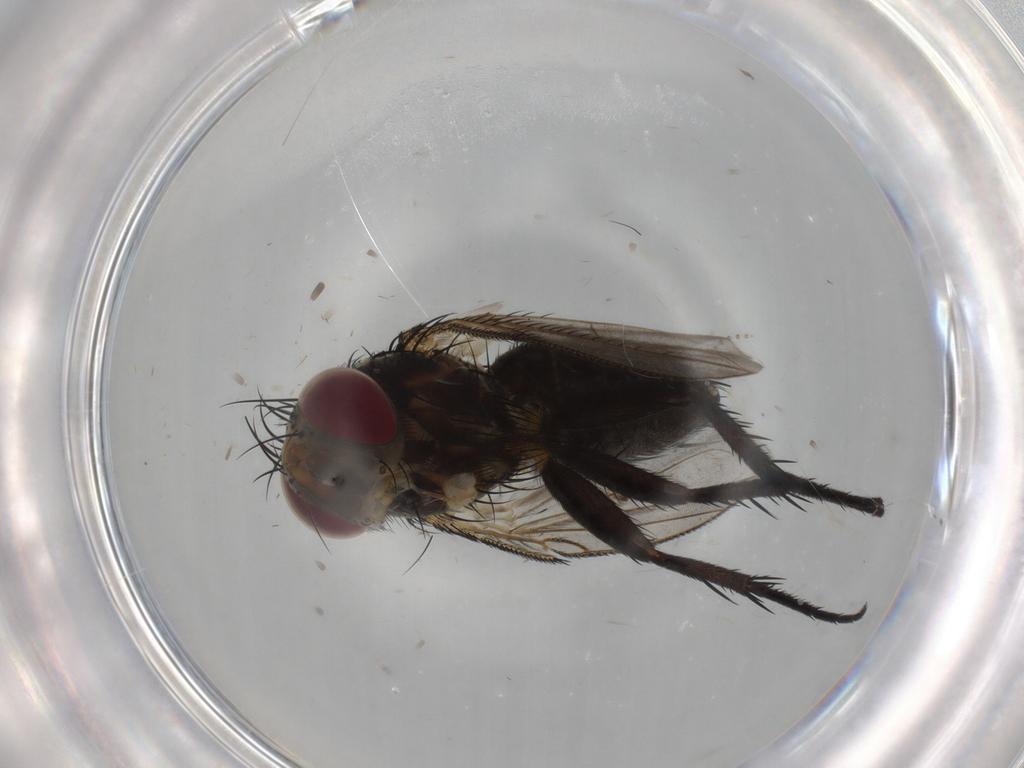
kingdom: Animalia
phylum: Arthropoda
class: Insecta
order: Diptera
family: Tachinidae
